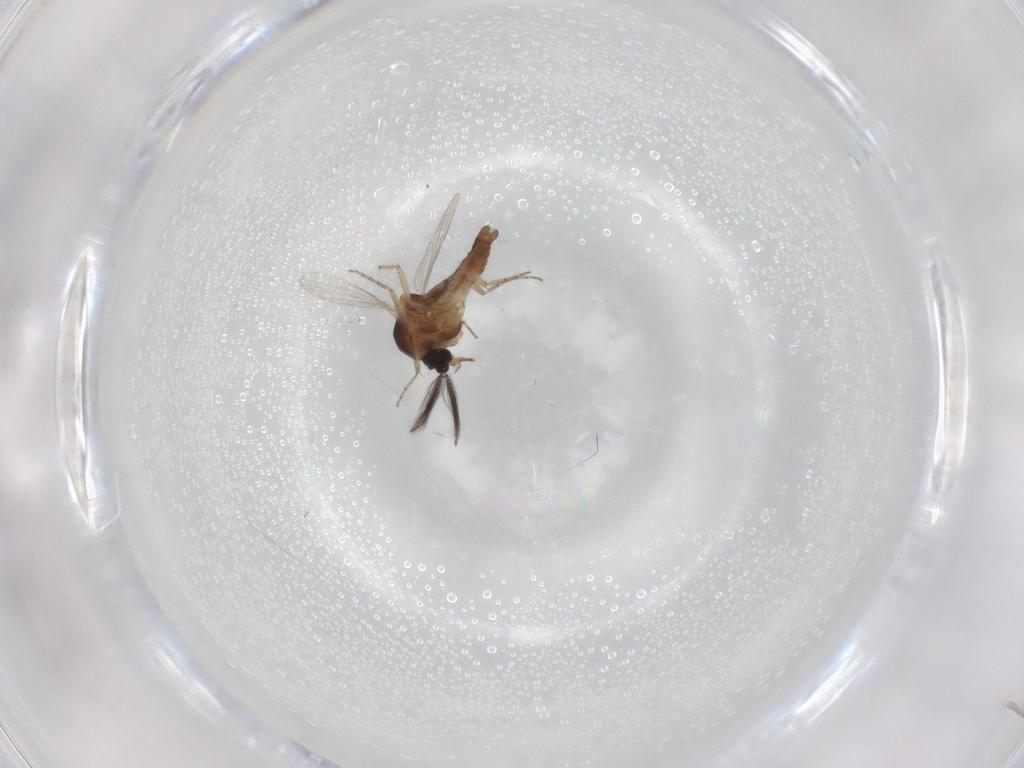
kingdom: Animalia
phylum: Arthropoda
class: Insecta
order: Diptera
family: Ceratopogonidae
